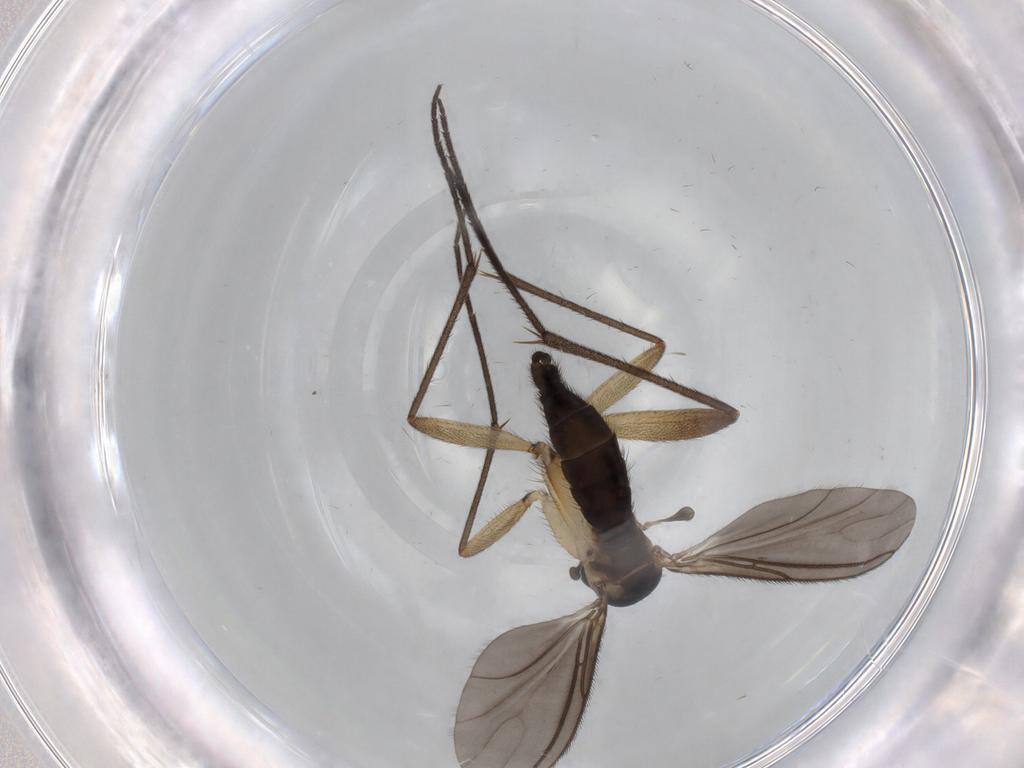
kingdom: Animalia
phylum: Arthropoda
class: Insecta
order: Diptera
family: Sciaridae
